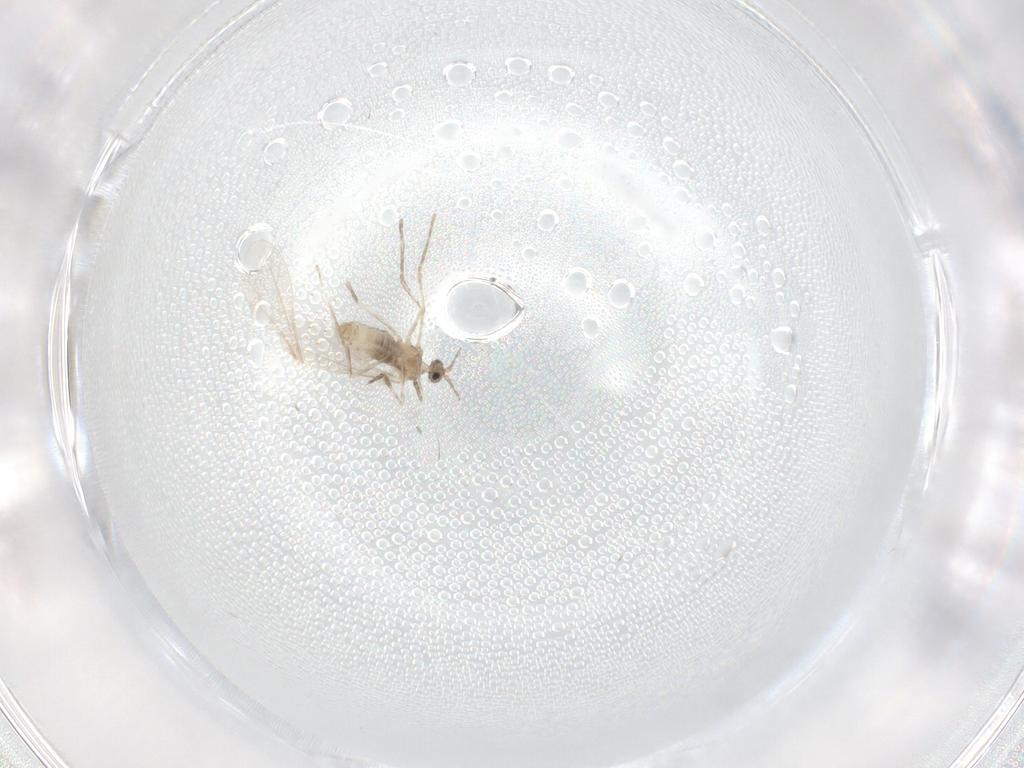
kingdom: Animalia
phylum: Arthropoda
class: Insecta
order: Diptera
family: Cecidomyiidae
